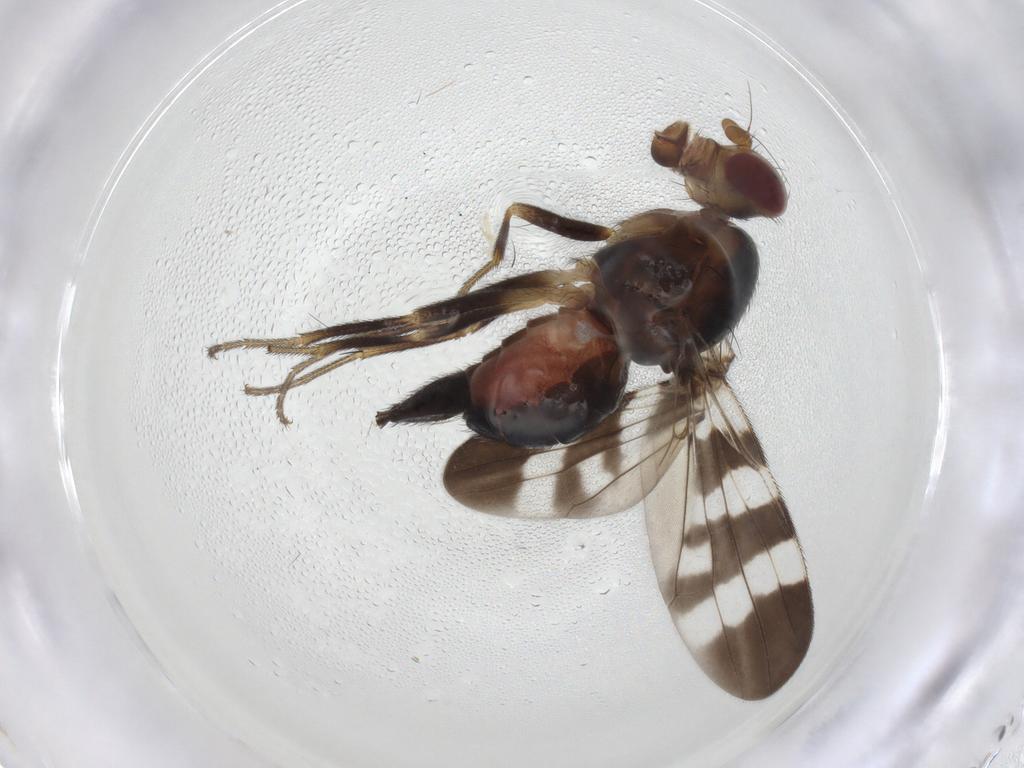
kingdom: Animalia
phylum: Arthropoda
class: Insecta
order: Diptera
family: Tephritidae
